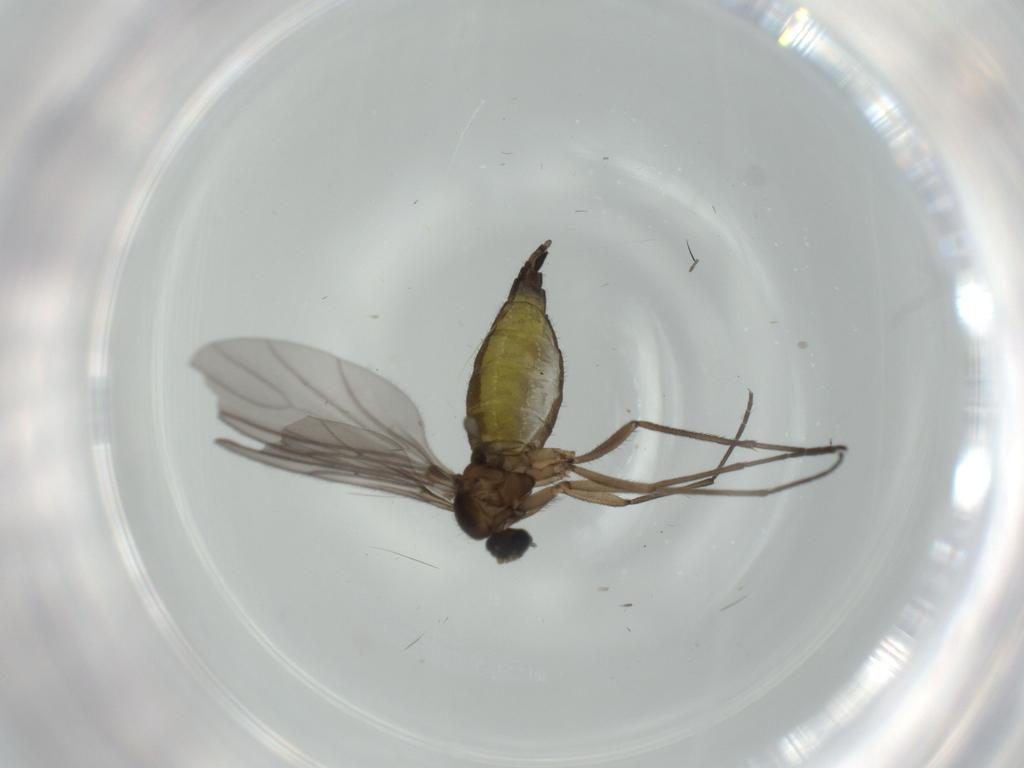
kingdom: Animalia
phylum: Arthropoda
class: Insecta
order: Diptera
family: Sciaridae
